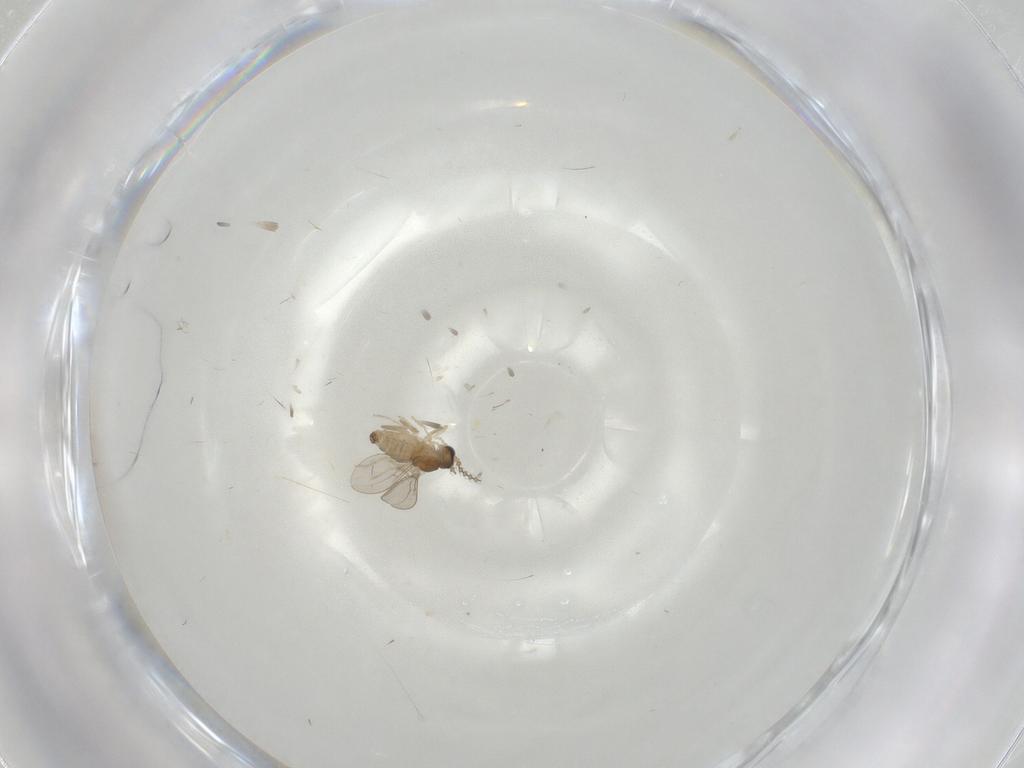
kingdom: Animalia
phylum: Arthropoda
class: Insecta
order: Diptera
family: Cecidomyiidae
